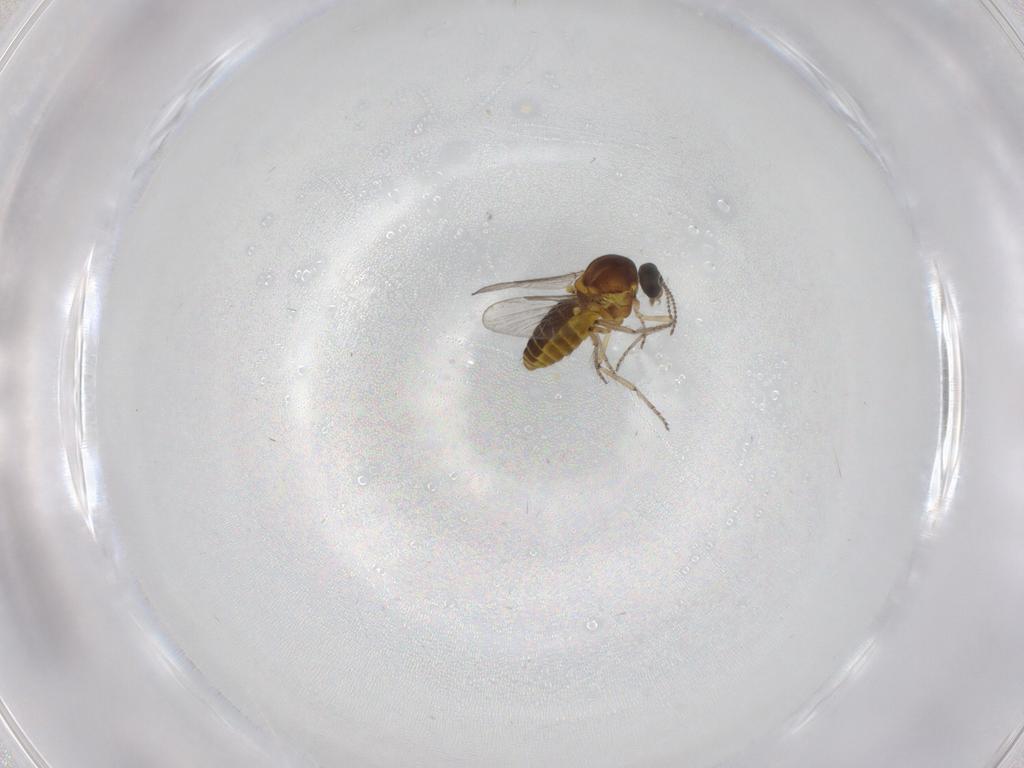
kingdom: Animalia
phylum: Arthropoda
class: Insecta
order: Diptera
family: Ceratopogonidae
